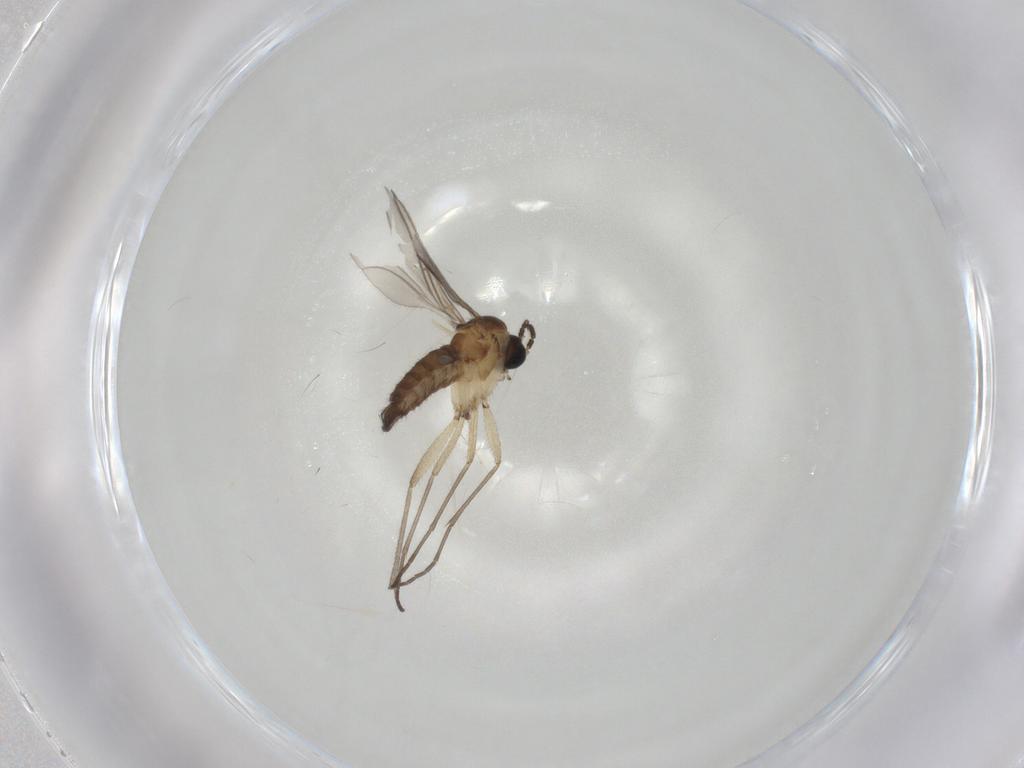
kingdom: Animalia
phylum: Arthropoda
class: Insecta
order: Diptera
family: Sciaridae
